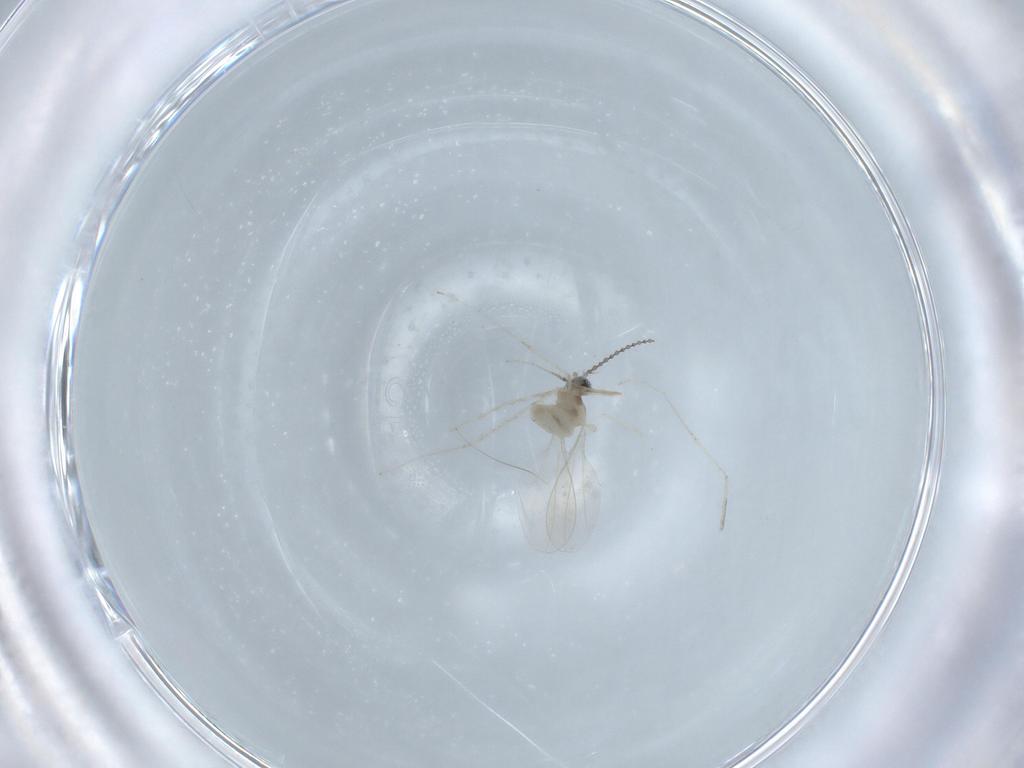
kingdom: Animalia
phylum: Arthropoda
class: Insecta
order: Diptera
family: Cecidomyiidae
